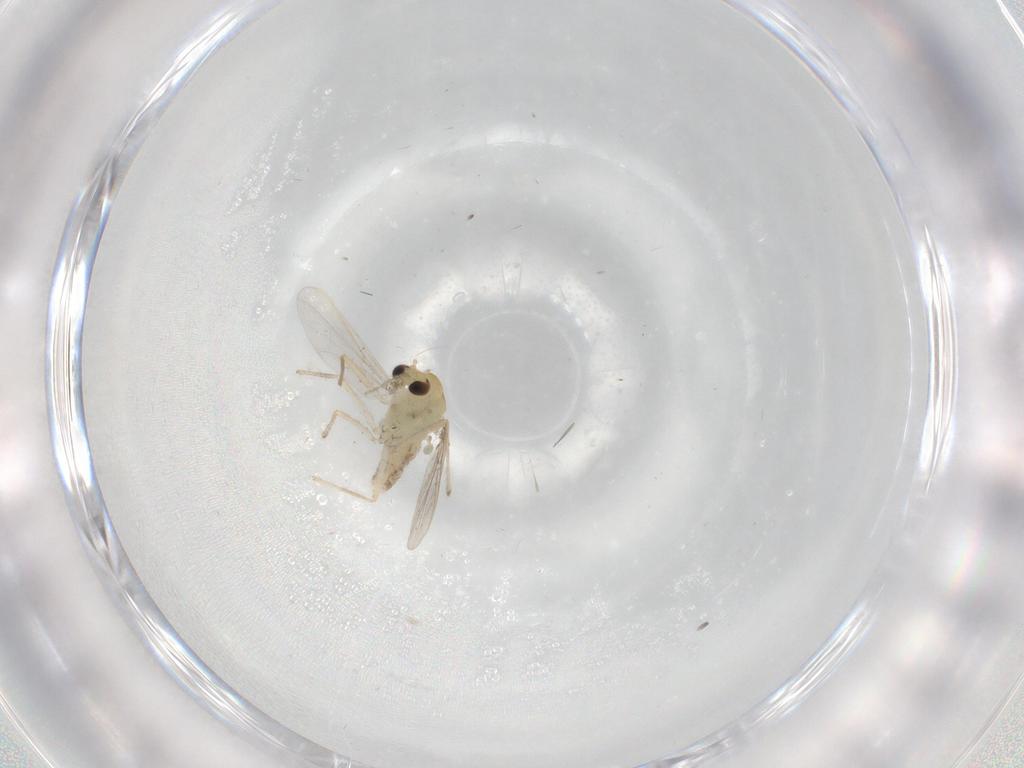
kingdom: Animalia
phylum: Arthropoda
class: Insecta
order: Diptera
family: Chironomidae
